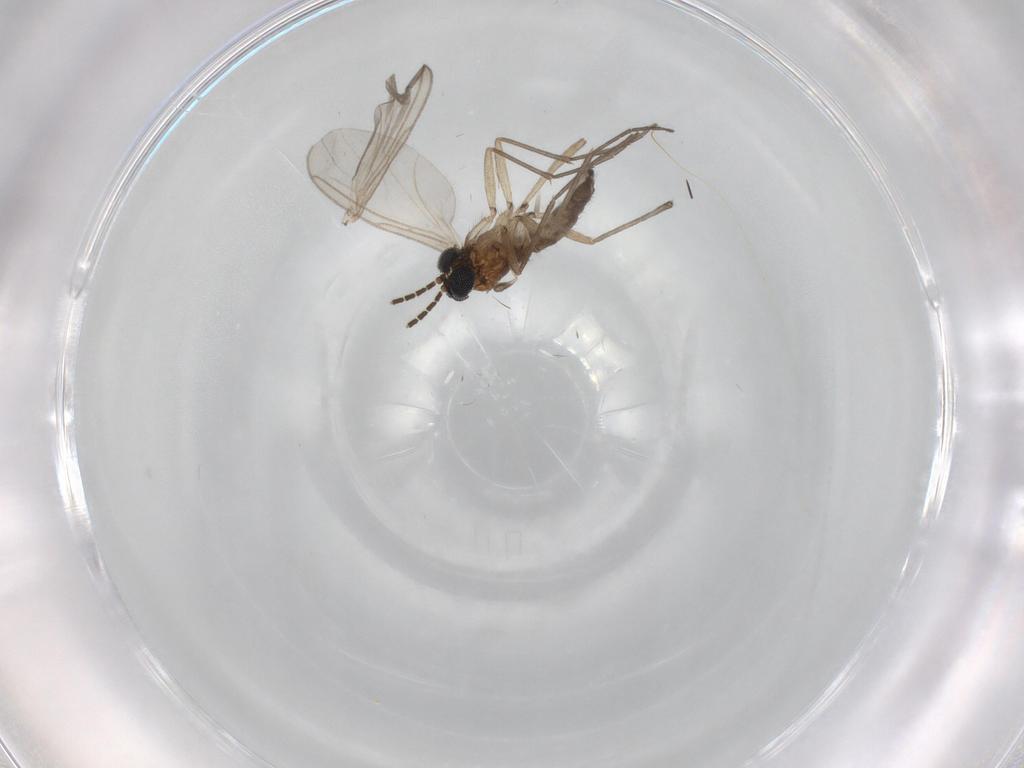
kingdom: Animalia
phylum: Arthropoda
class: Insecta
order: Diptera
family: Sciaridae
